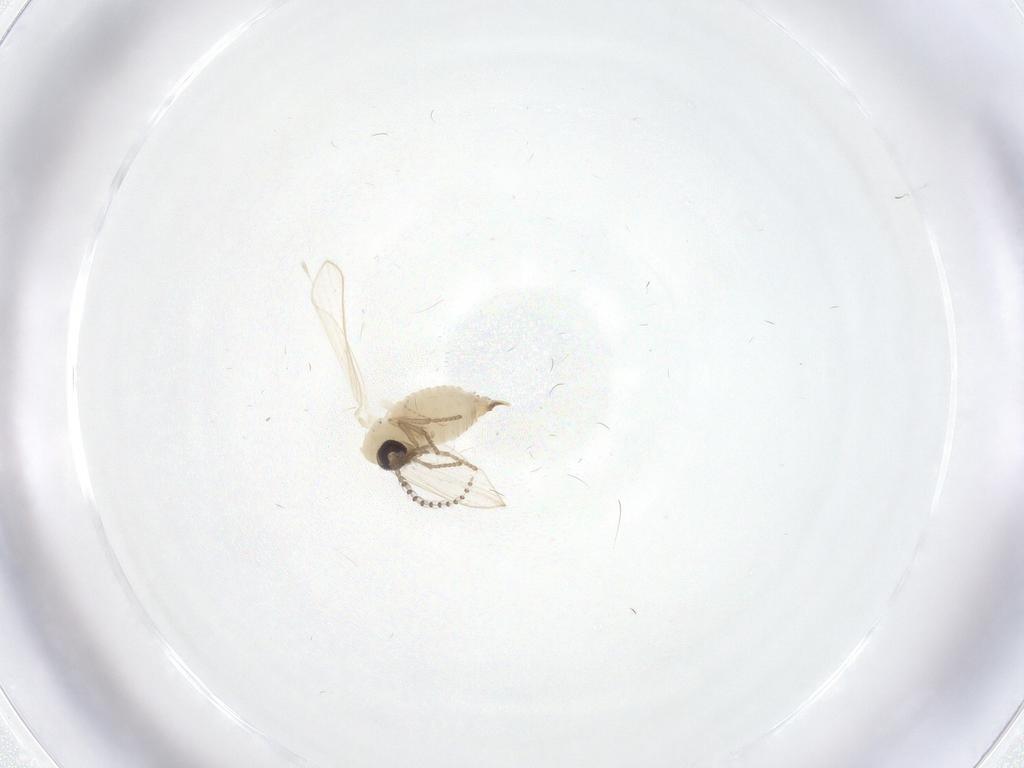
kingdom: Animalia
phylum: Arthropoda
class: Insecta
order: Diptera
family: Psychodidae
